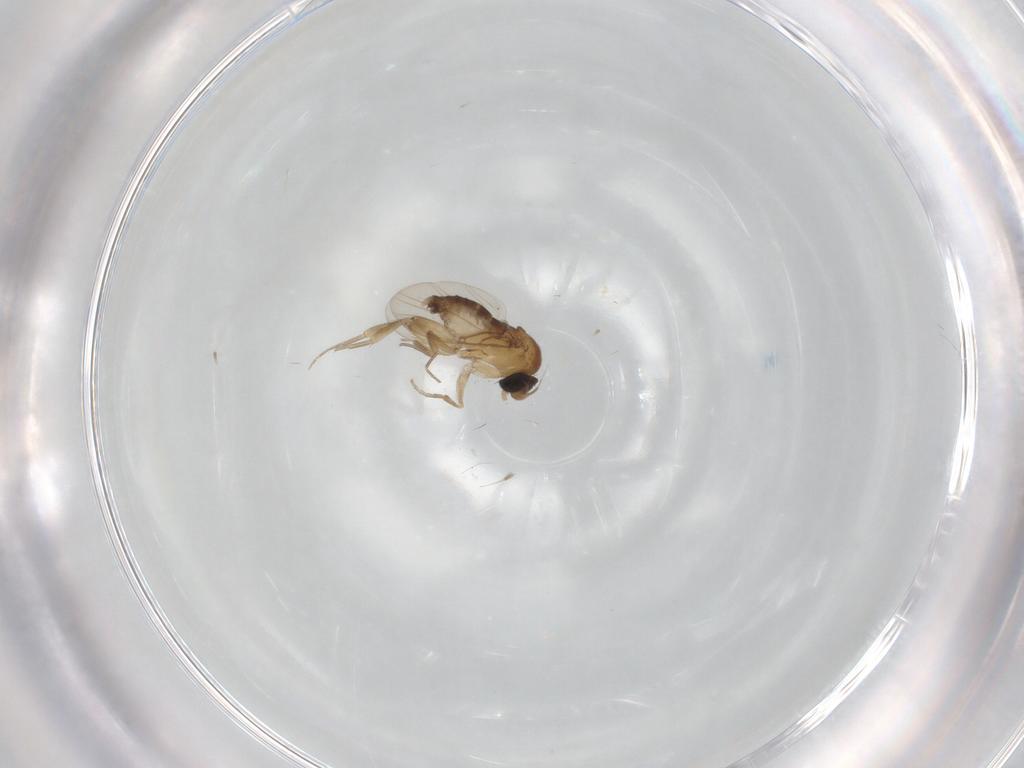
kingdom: Animalia
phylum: Arthropoda
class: Insecta
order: Diptera
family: Phoridae
